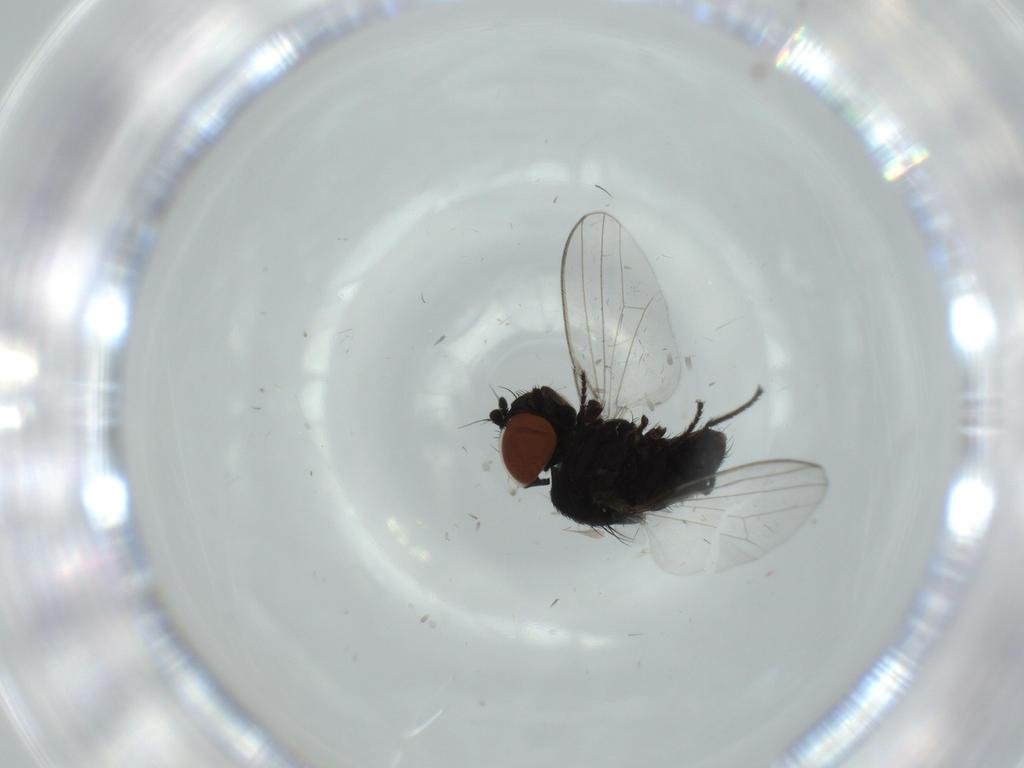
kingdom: Animalia
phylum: Arthropoda
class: Insecta
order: Diptera
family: Milichiidae
